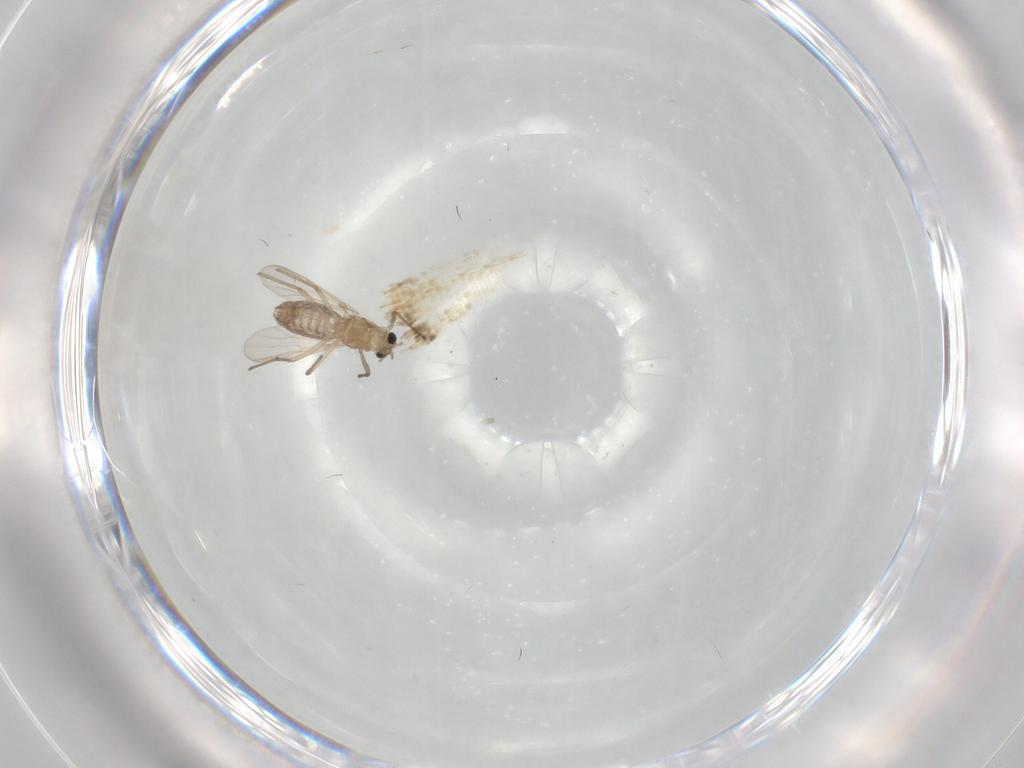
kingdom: Animalia
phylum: Arthropoda
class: Insecta
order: Diptera
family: Chironomidae
